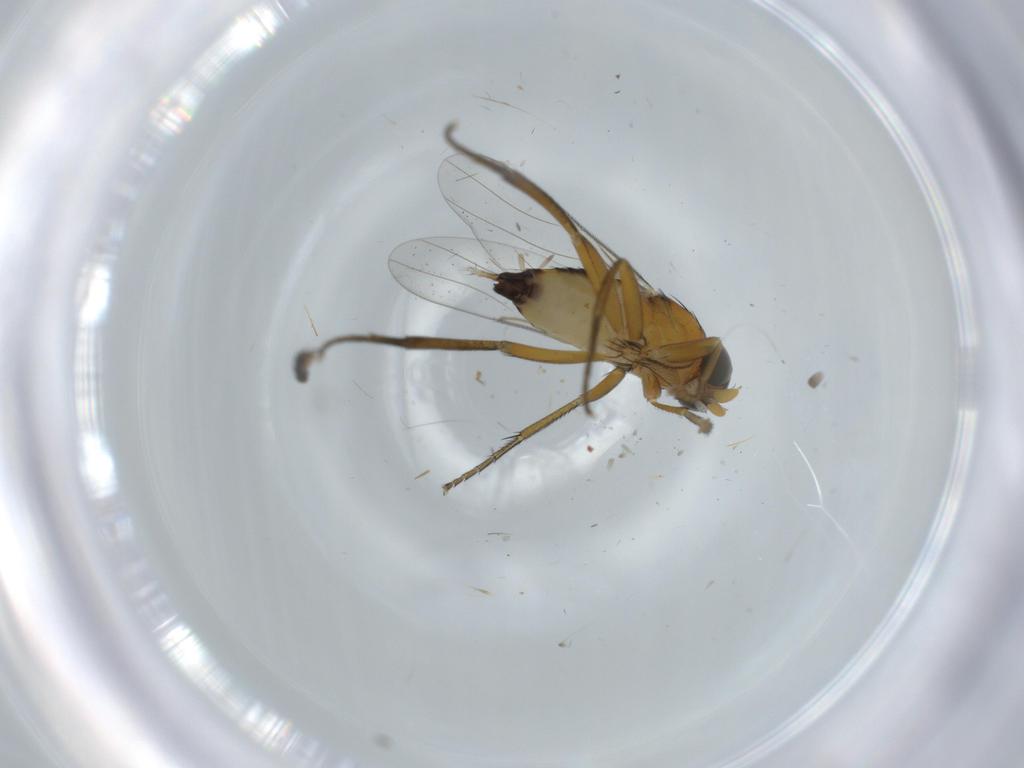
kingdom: Animalia
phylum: Arthropoda
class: Insecta
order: Diptera
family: Phoridae
